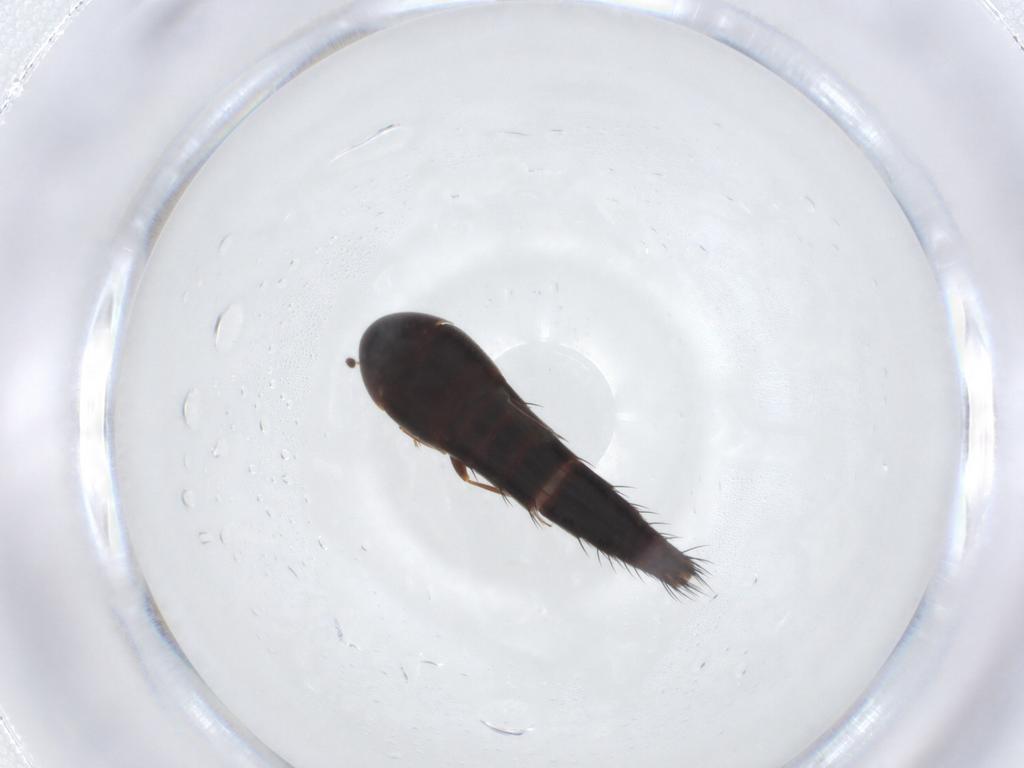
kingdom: Animalia
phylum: Arthropoda
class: Insecta
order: Coleoptera
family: Staphylinidae
